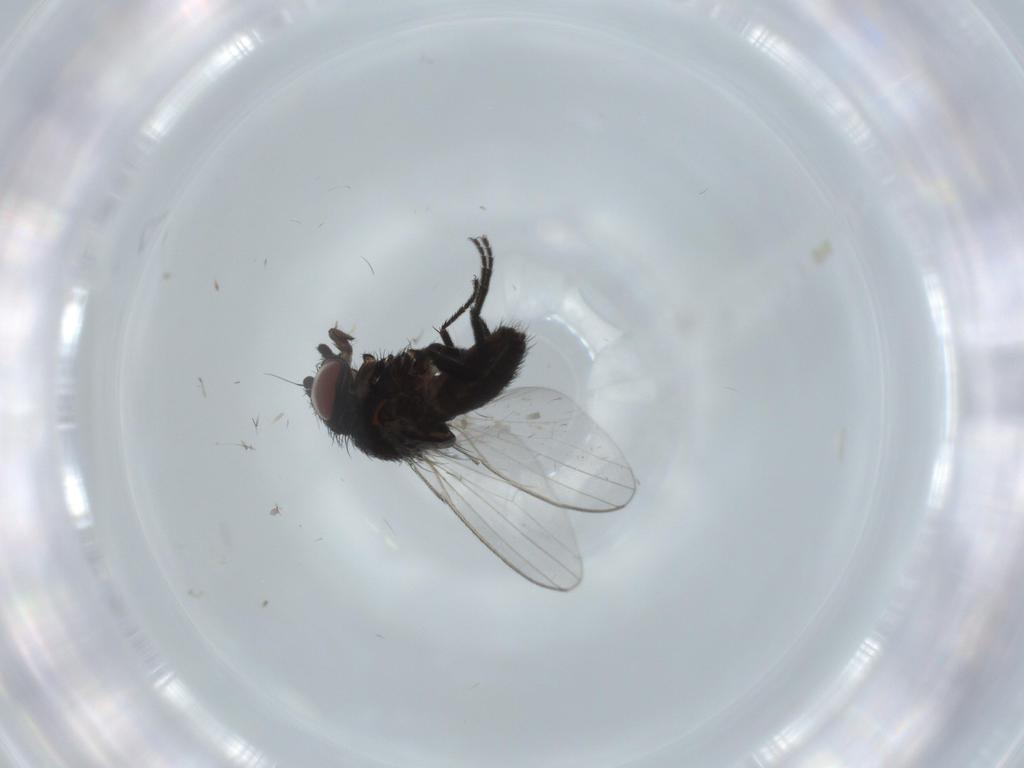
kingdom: Animalia
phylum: Arthropoda
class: Insecta
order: Diptera
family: Milichiidae
